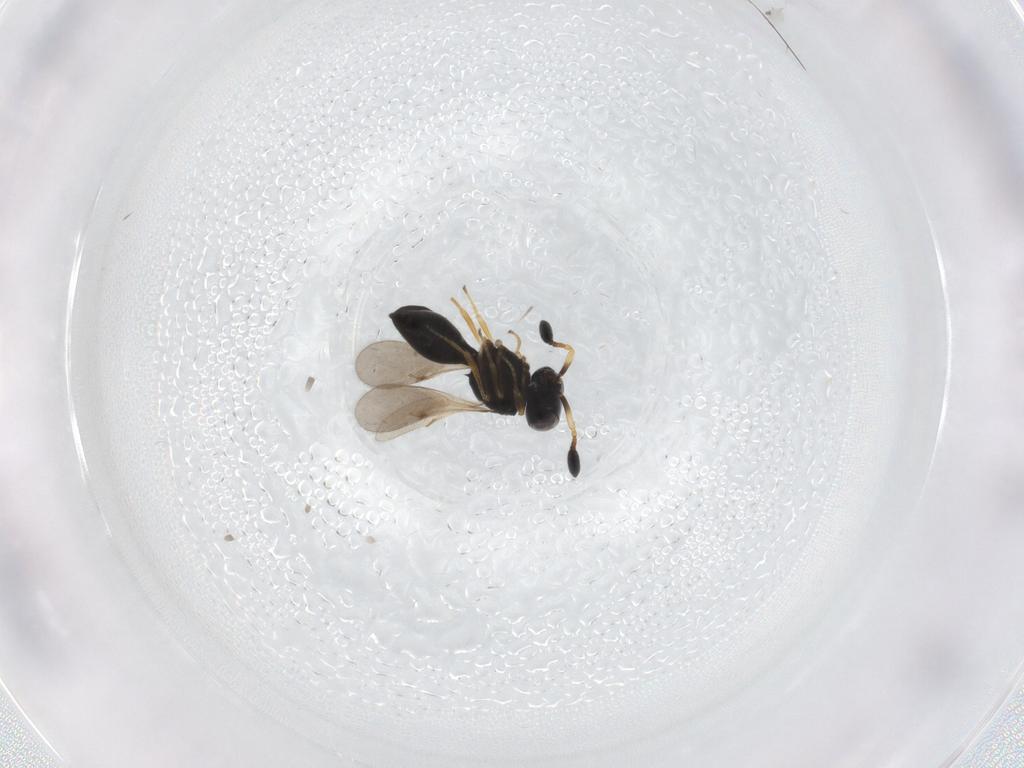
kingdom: Animalia
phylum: Arthropoda
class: Insecta
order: Hymenoptera
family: Scelionidae
